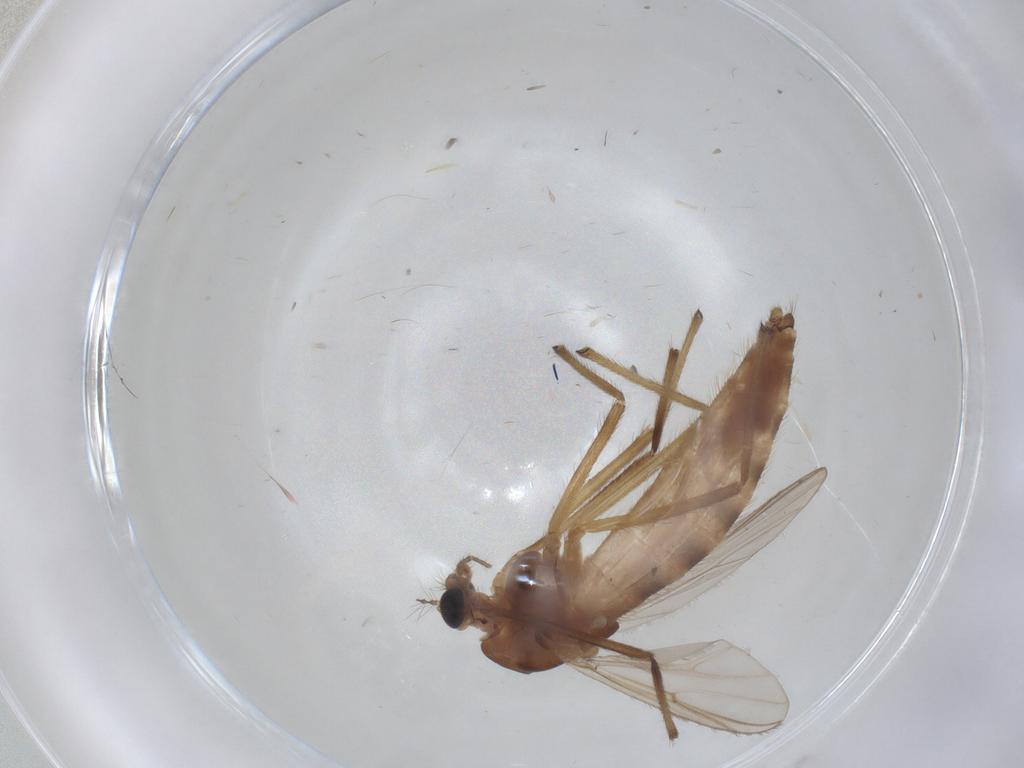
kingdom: Animalia
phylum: Arthropoda
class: Insecta
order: Diptera
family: Chironomidae
